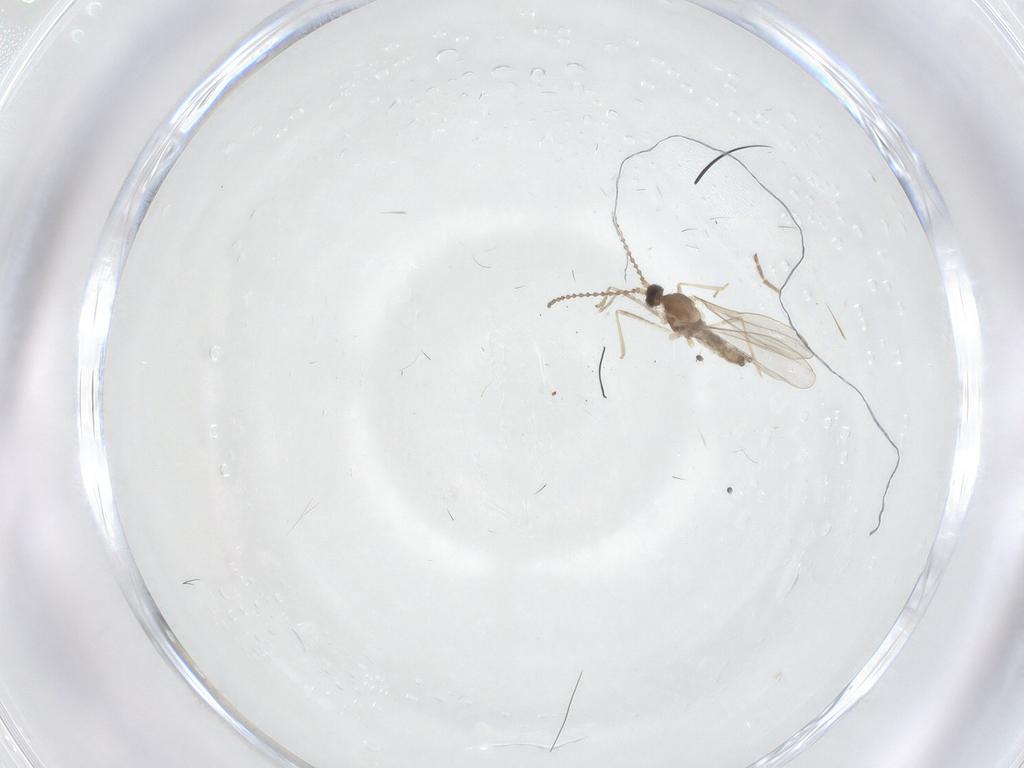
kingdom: Animalia
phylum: Arthropoda
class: Insecta
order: Diptera
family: Cecidomyiidae
